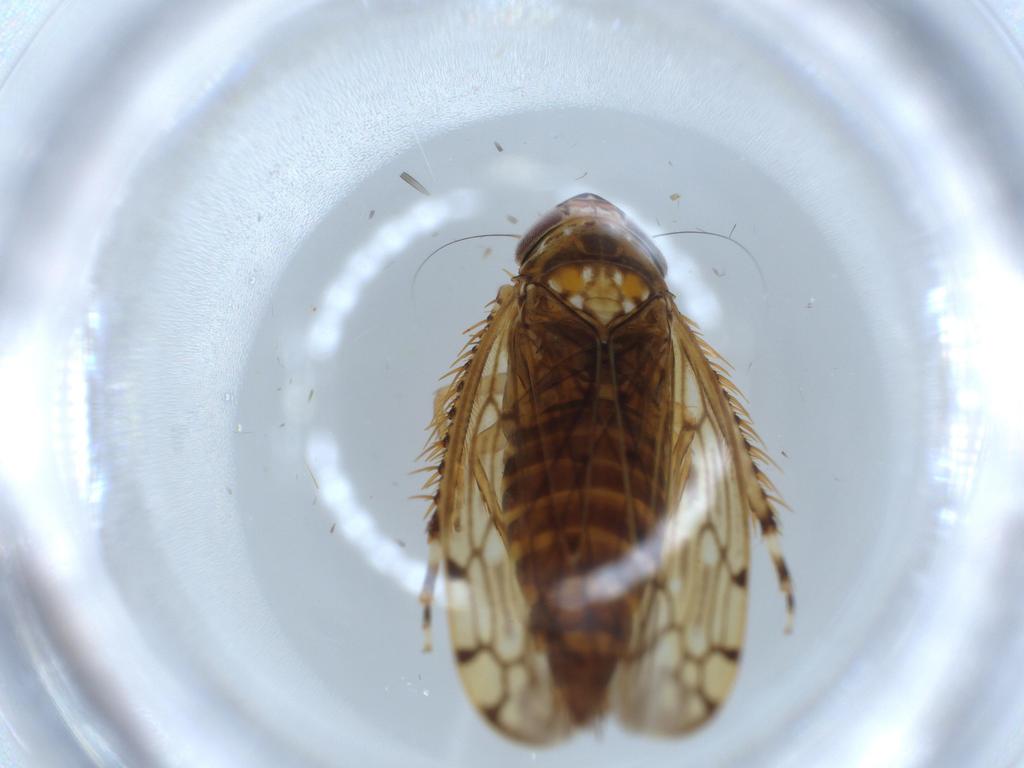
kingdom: Animalia
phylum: Arthropoda
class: Insecta
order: Hemiptera
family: Cicadellidae
